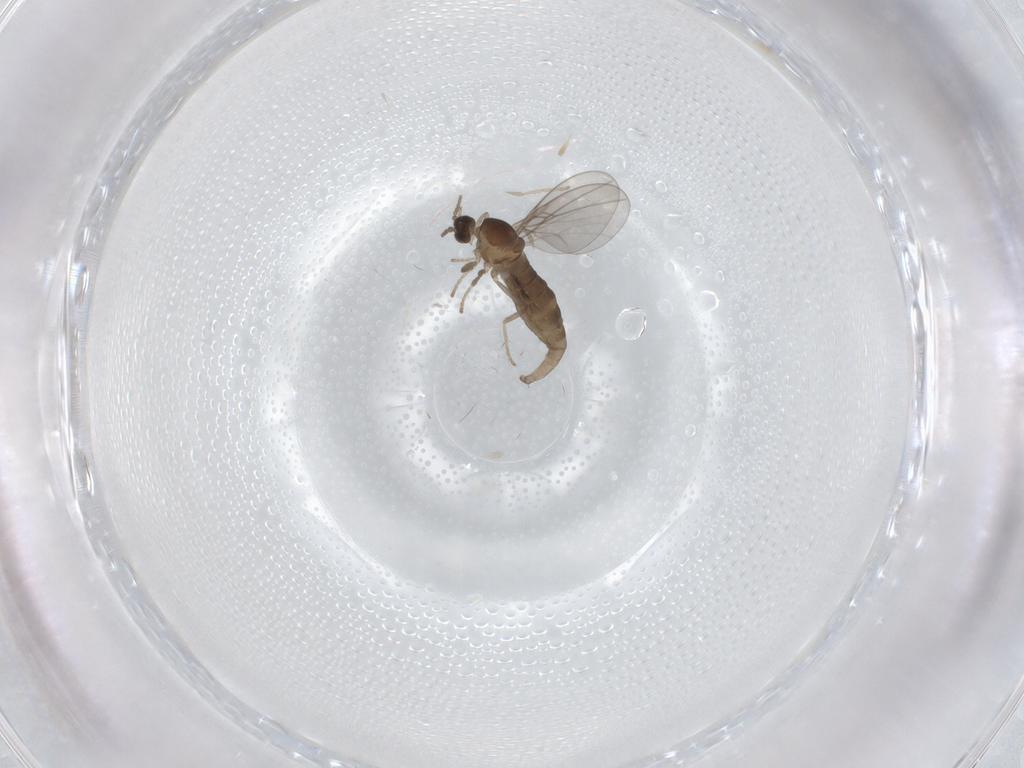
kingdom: Animalia
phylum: Arthropoda
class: Insecta
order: Diptera
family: Cecidomyiidae
